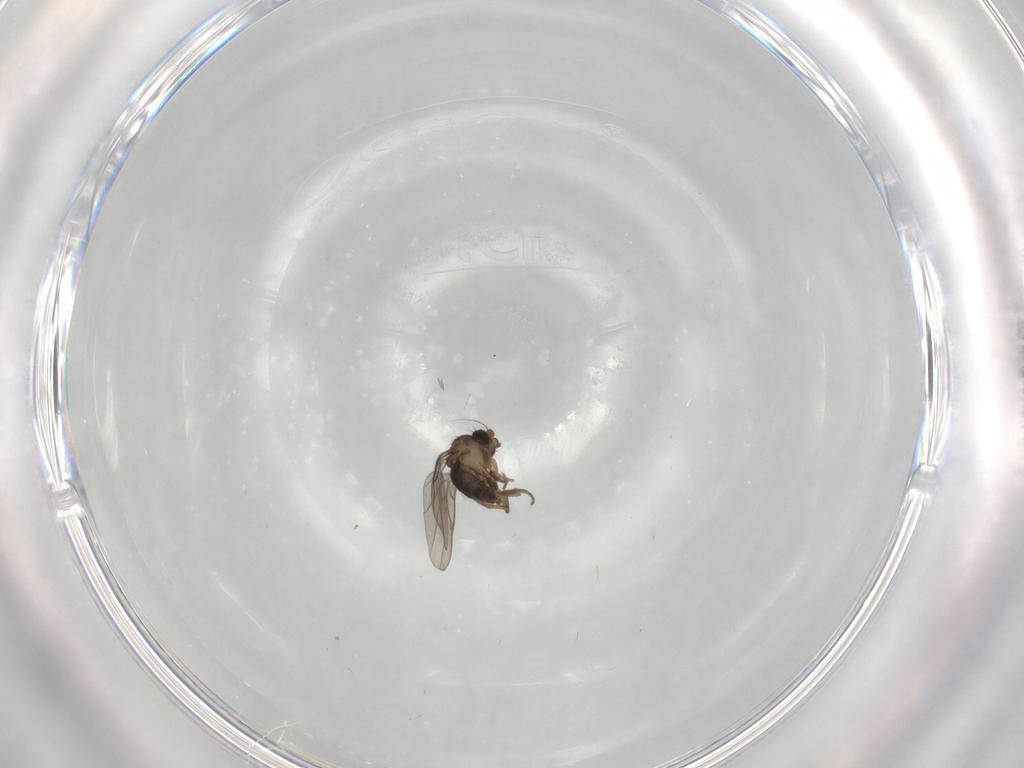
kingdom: Animalia
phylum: Arthropoda
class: Insecta
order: Diptera
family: Phoridae
